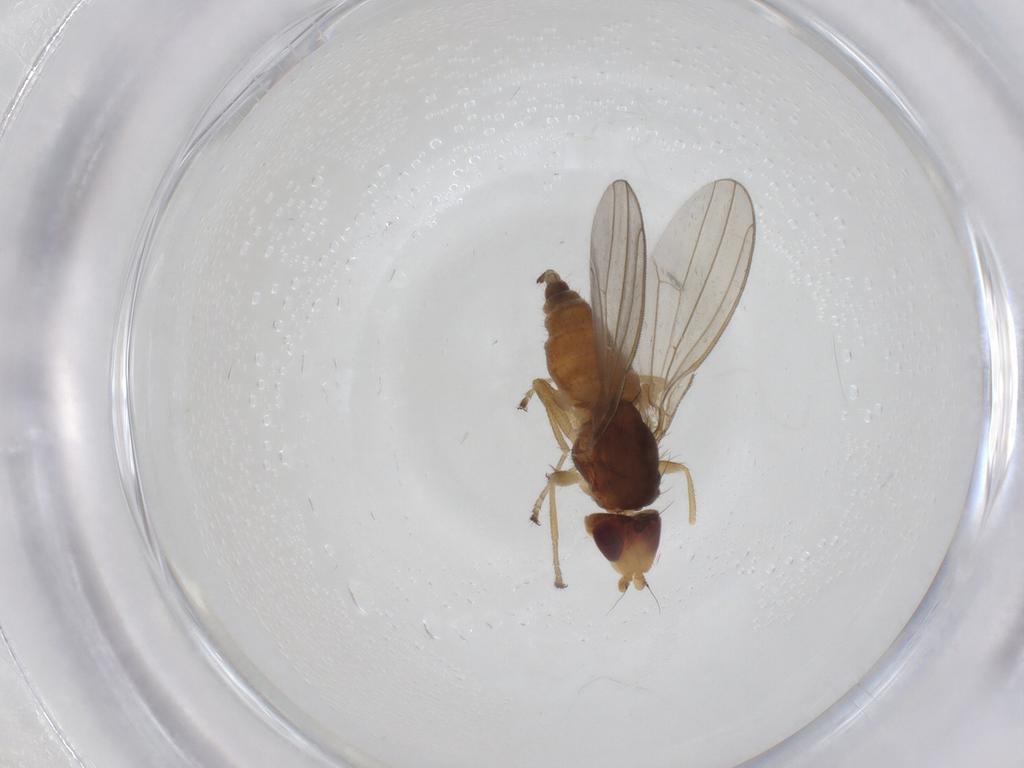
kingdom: Animalia
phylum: Arthropoda
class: Insecta
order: Diptera
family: Canacidae
